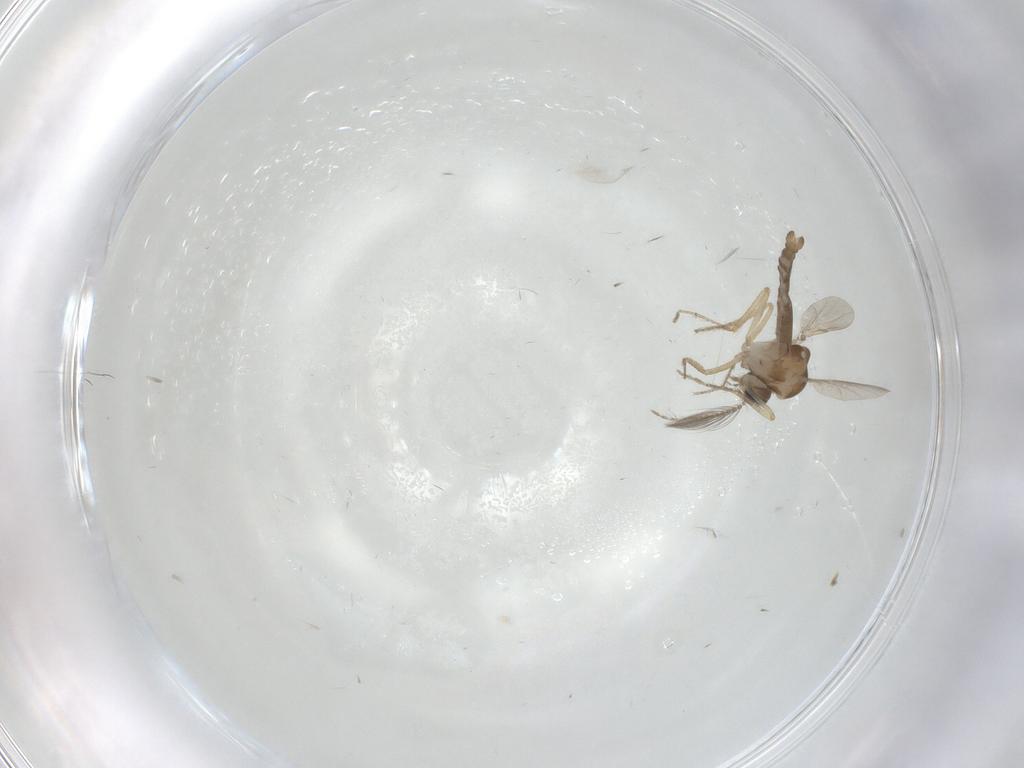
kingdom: Animalia
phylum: Arthropoda
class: Insecta
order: Diptera
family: Ceratopogonidae
